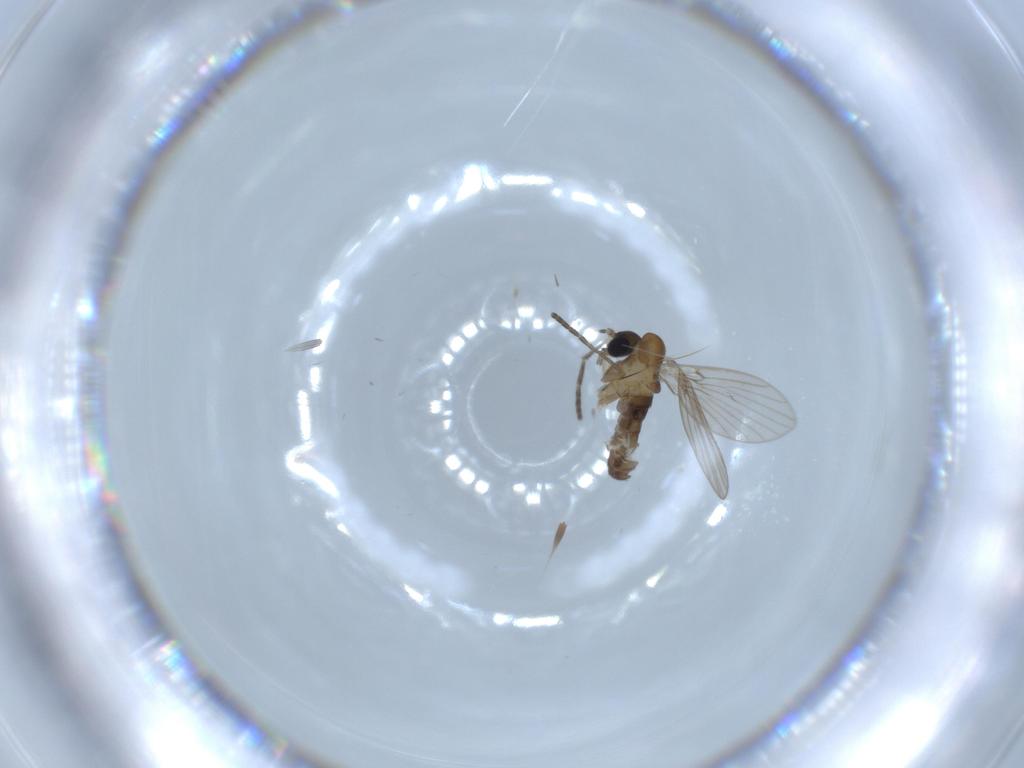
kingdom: Animalia
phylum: Arthropoda
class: Insecta
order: Diptera
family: Psychodidae
